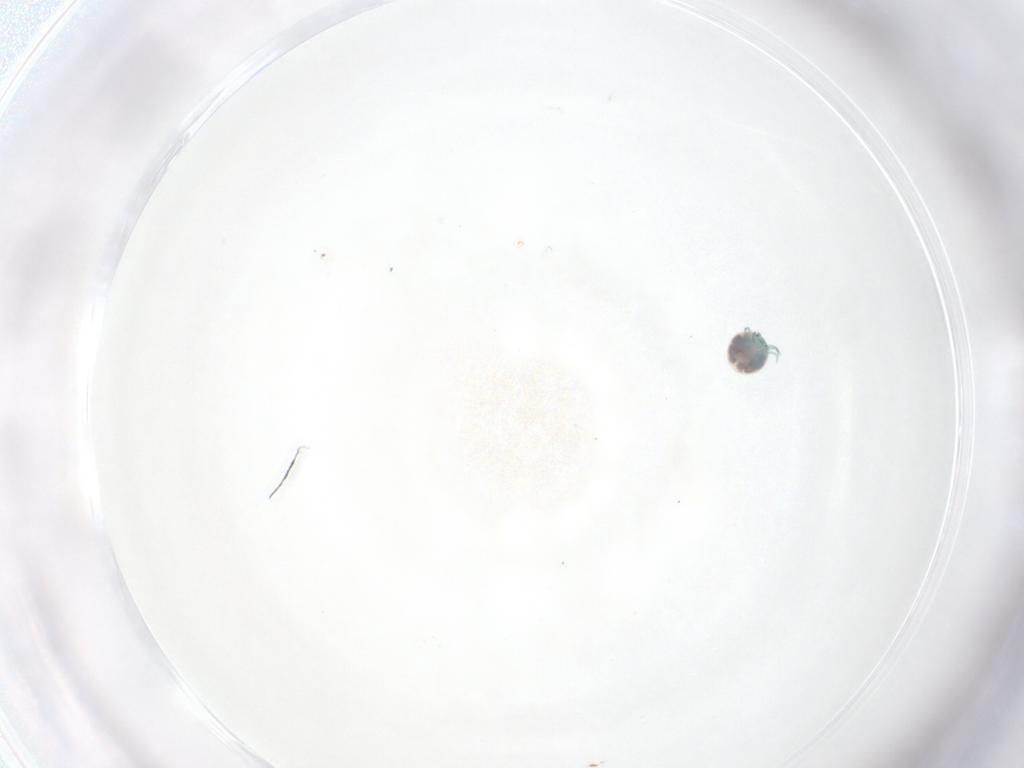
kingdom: Animalia
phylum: Arthropoda
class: Arachnida
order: Trombidiformes
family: Arrenuridae
